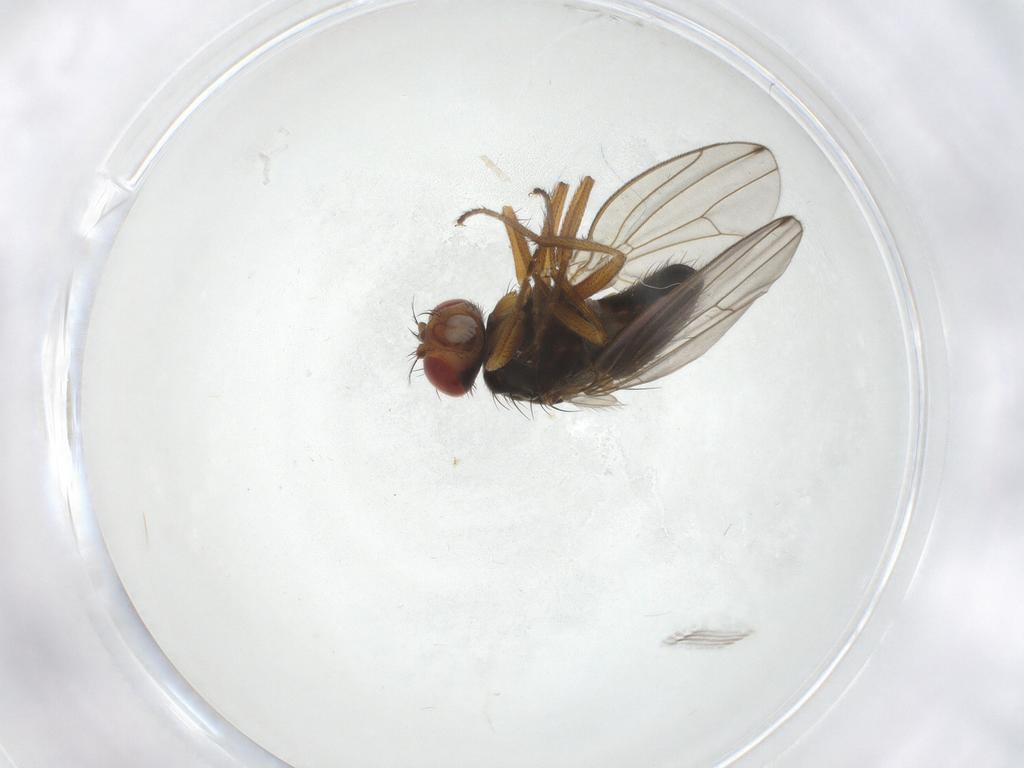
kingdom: Animalia
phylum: Arthropoda
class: Insecta
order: Diptera
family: Drosophilidae
